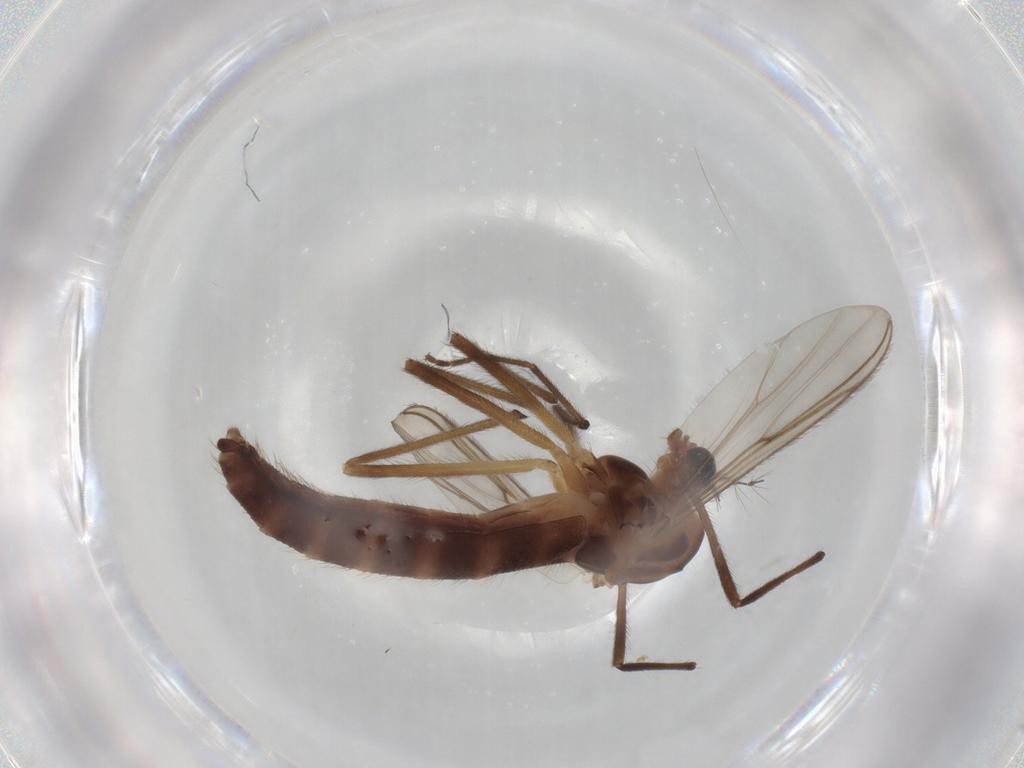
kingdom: Animalia
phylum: Arthropoda
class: Insecta
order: Diptera
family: Chironomidae
